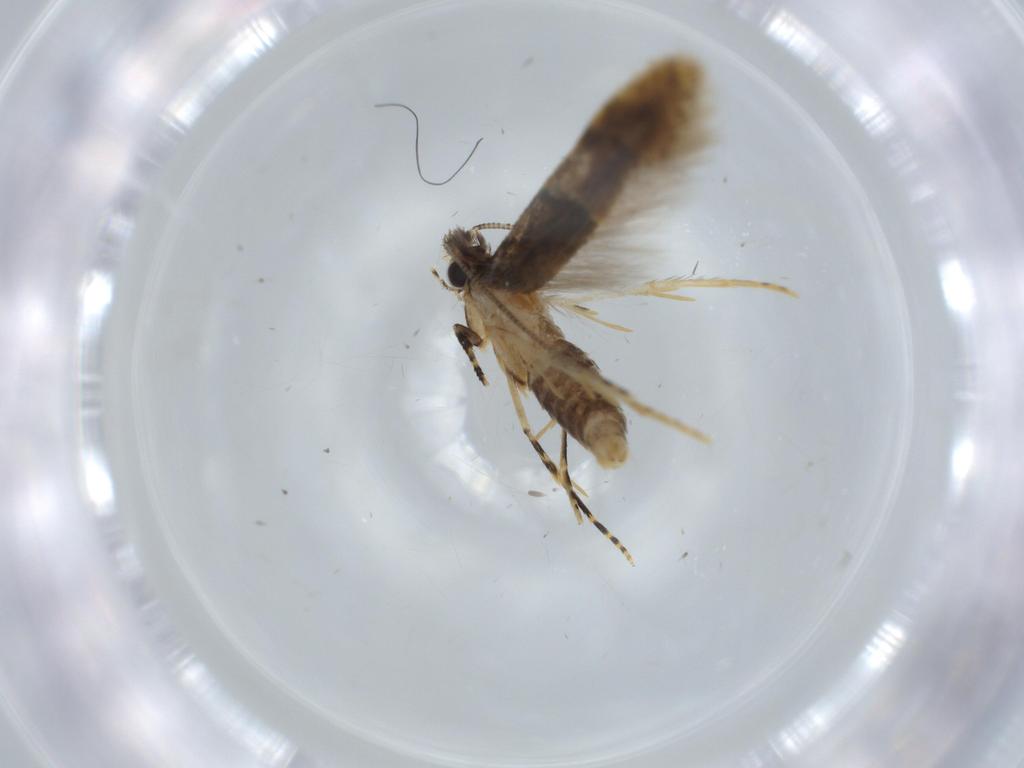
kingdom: Animalia
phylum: Arthropoda
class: Insecta
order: Lepidoptera
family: Tineidae
